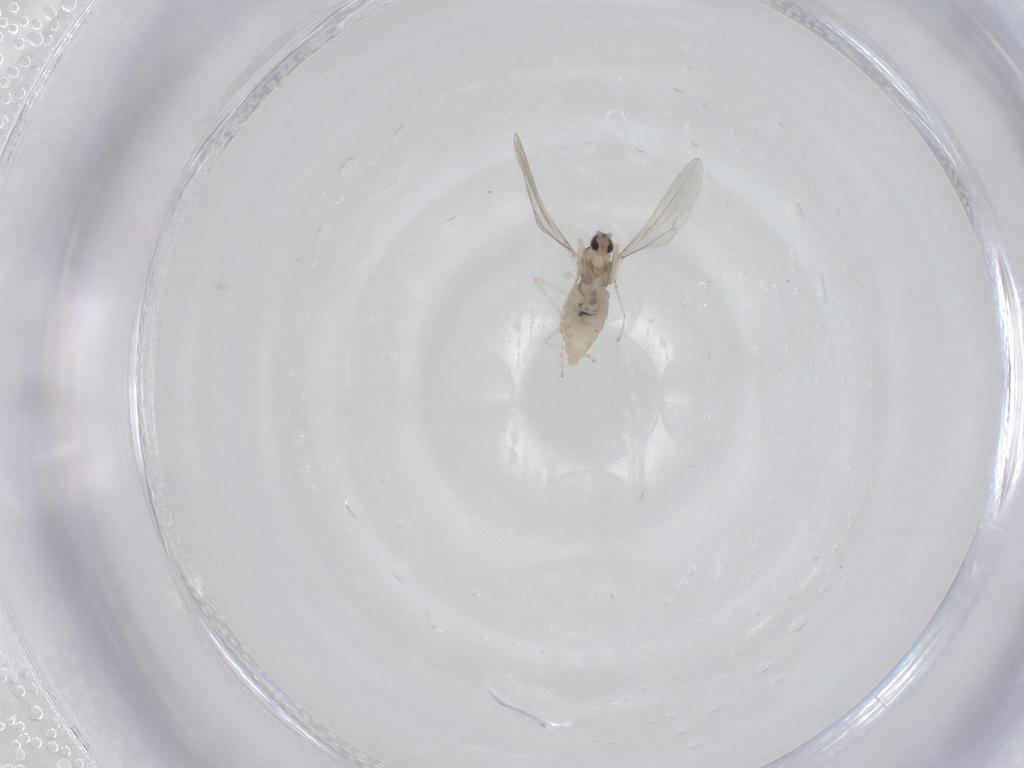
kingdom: Animalia
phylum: Arthropoda
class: Insecta
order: Diptera
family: Cecidomyiidae
